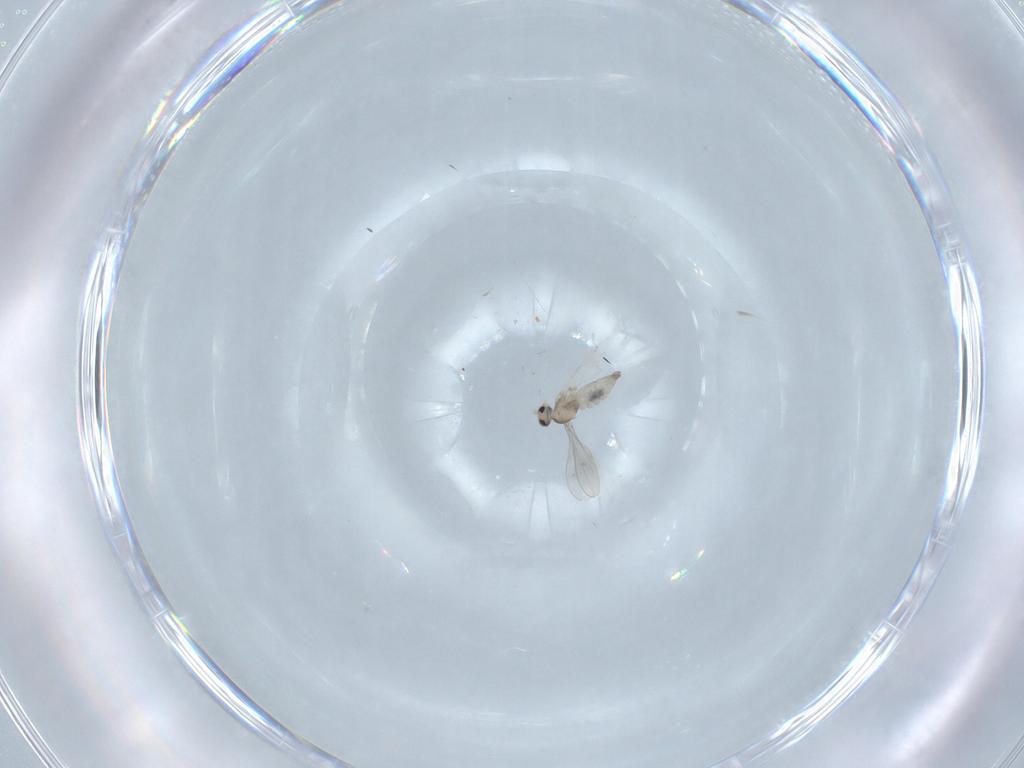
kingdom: Animalia
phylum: Arthropoda
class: Insecta
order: Diptera
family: Cecidomyiidae
